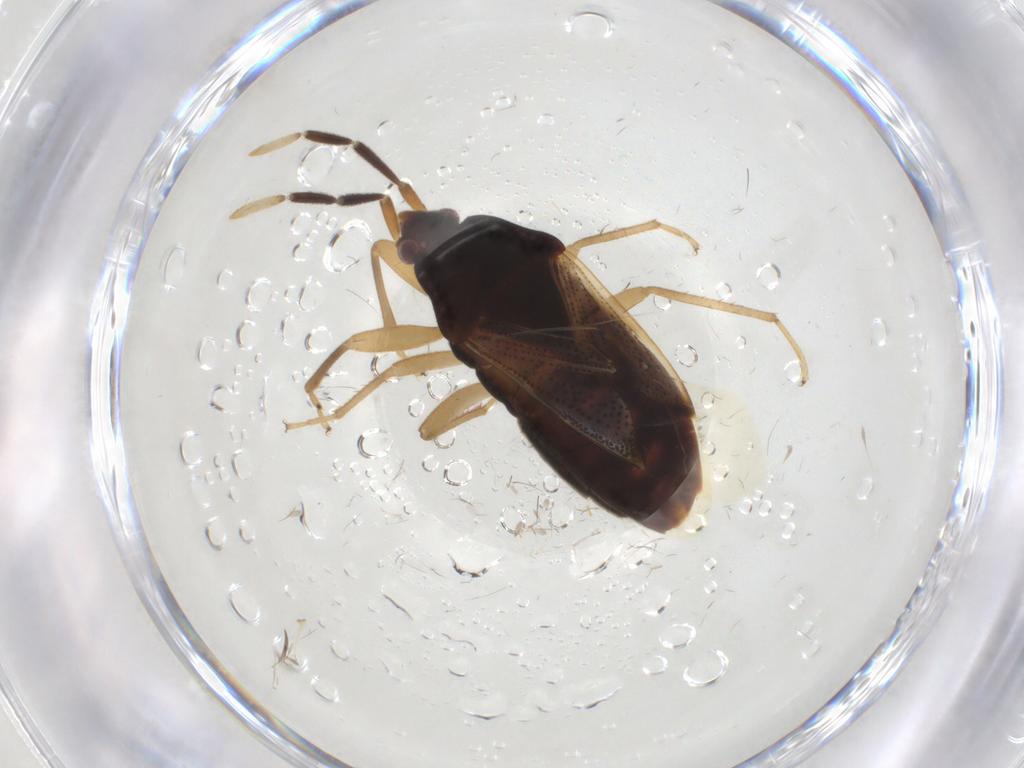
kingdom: Animalia
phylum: Arthropoda
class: Insecta
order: Hemiptera
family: Rhyparochromidae
